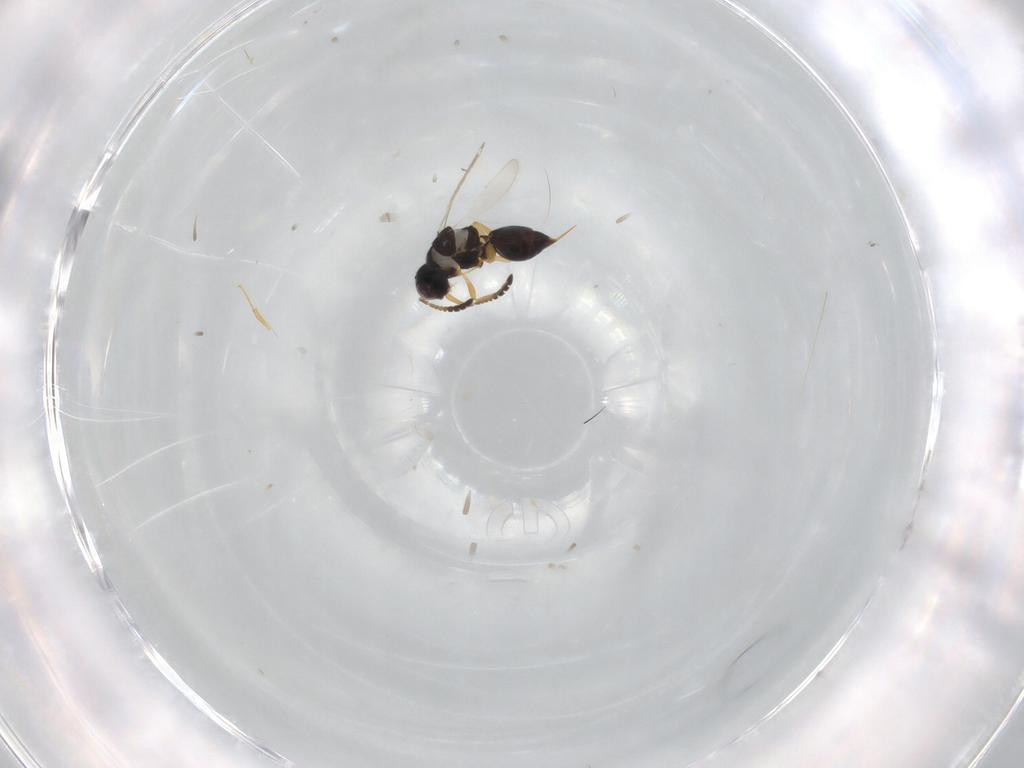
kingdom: Animalia
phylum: Arthropoda
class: Insecta
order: Hymenoptera
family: Ceraphronidae
